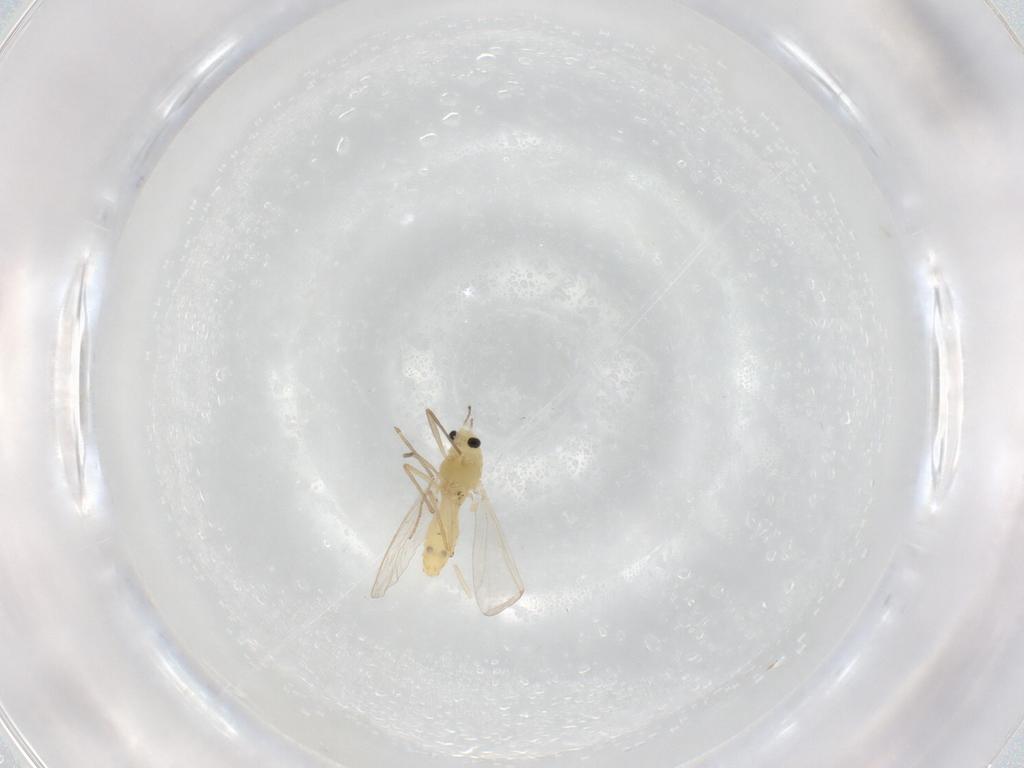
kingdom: Animalia
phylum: Arthropoda
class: Insecta
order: Diptera
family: Chironomidae
